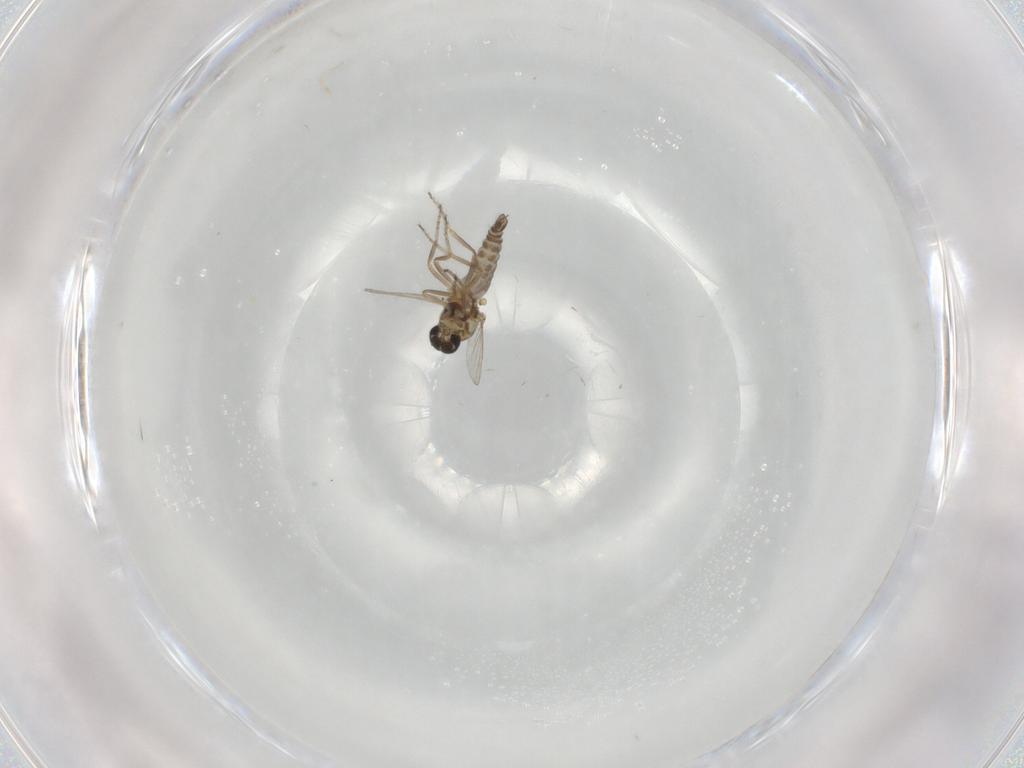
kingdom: Animalia
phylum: Arthropoda
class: Insecta
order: Diptera
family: Ceratopogonidae
